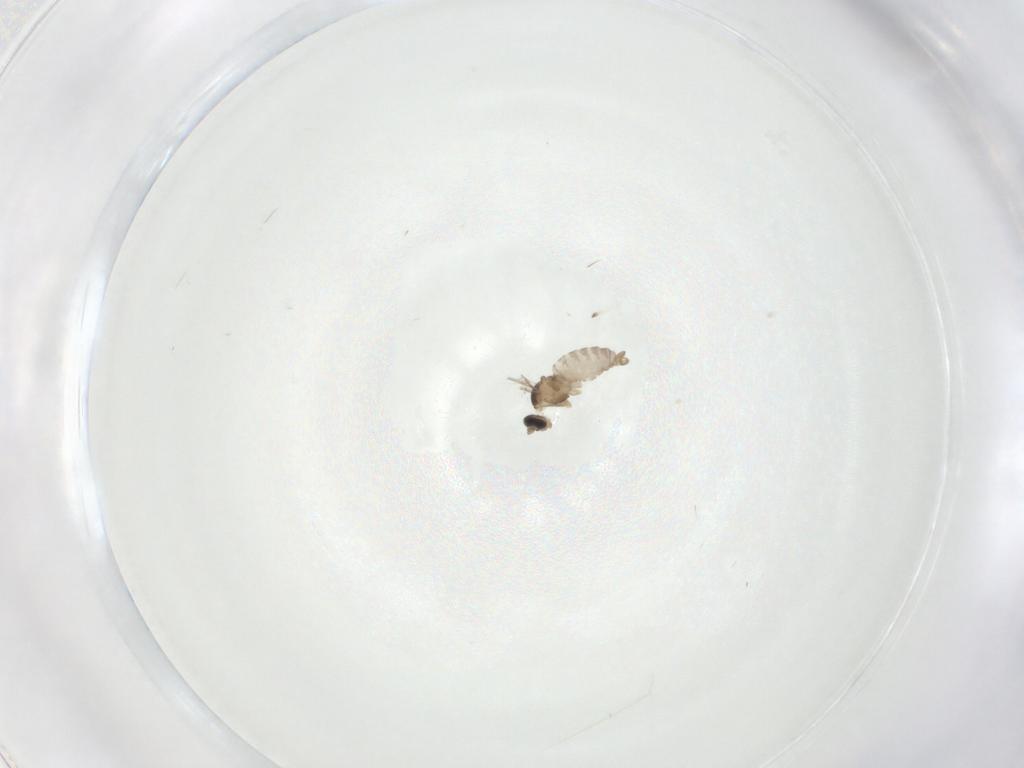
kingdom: Animalia
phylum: Arthropoda
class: Insecta
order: Diptera
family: Cecidomyiidae
